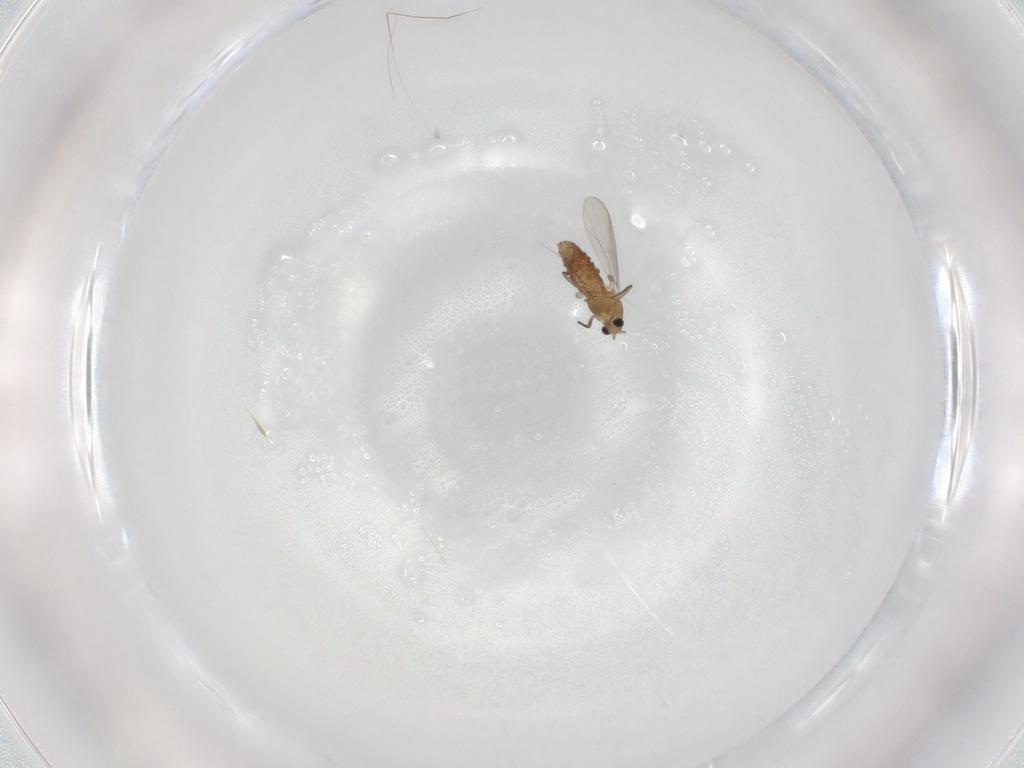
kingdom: Animalia
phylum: Arthropoda
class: Insecta
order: Diptera
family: Chironomidae
